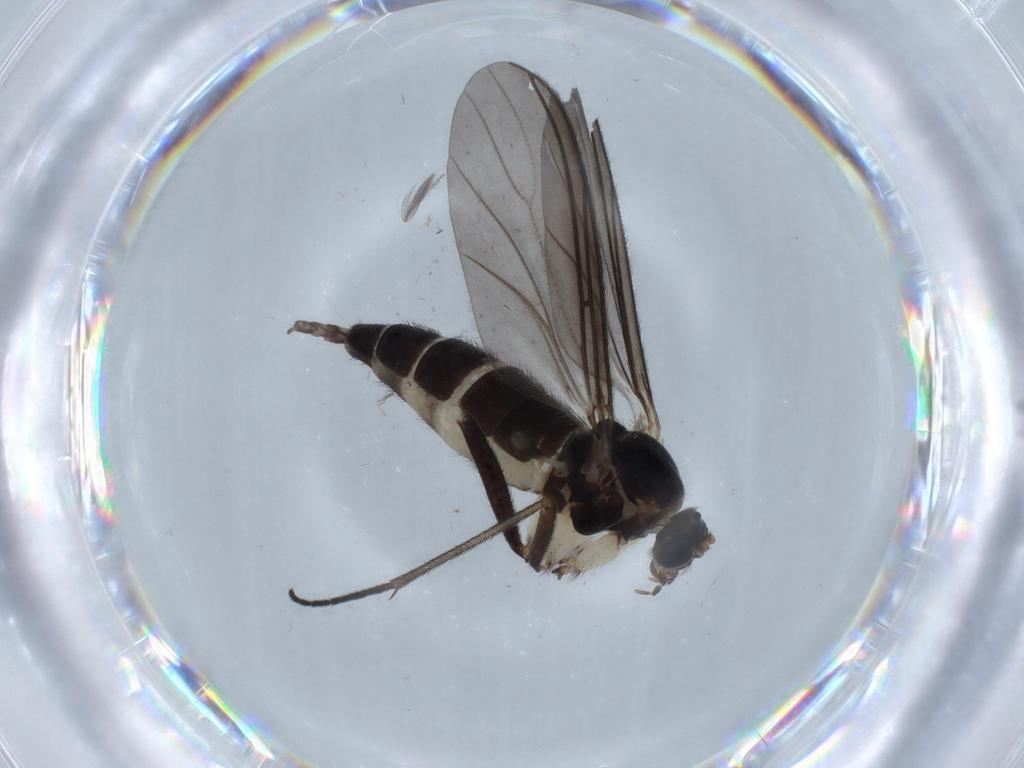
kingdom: Animalia
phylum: Arthropoda
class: Insecta
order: Diptera
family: Sciaridae
